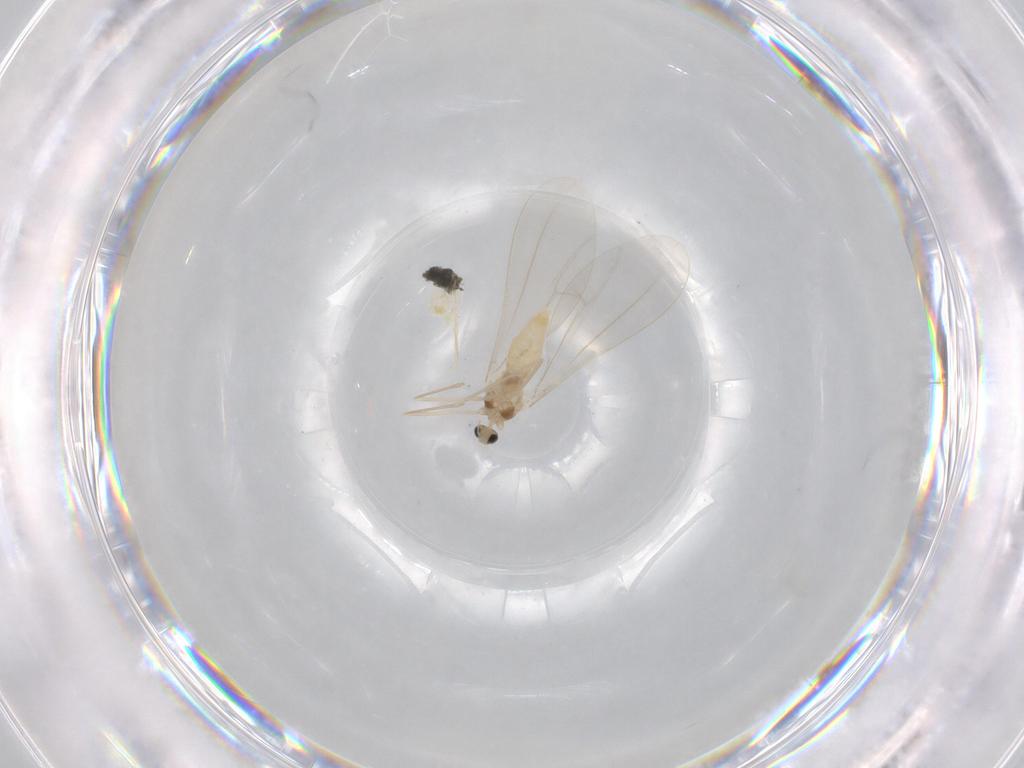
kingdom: Animalia
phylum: Arthropoda
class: Insecta
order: Diptera
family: Cecidomyiidae
